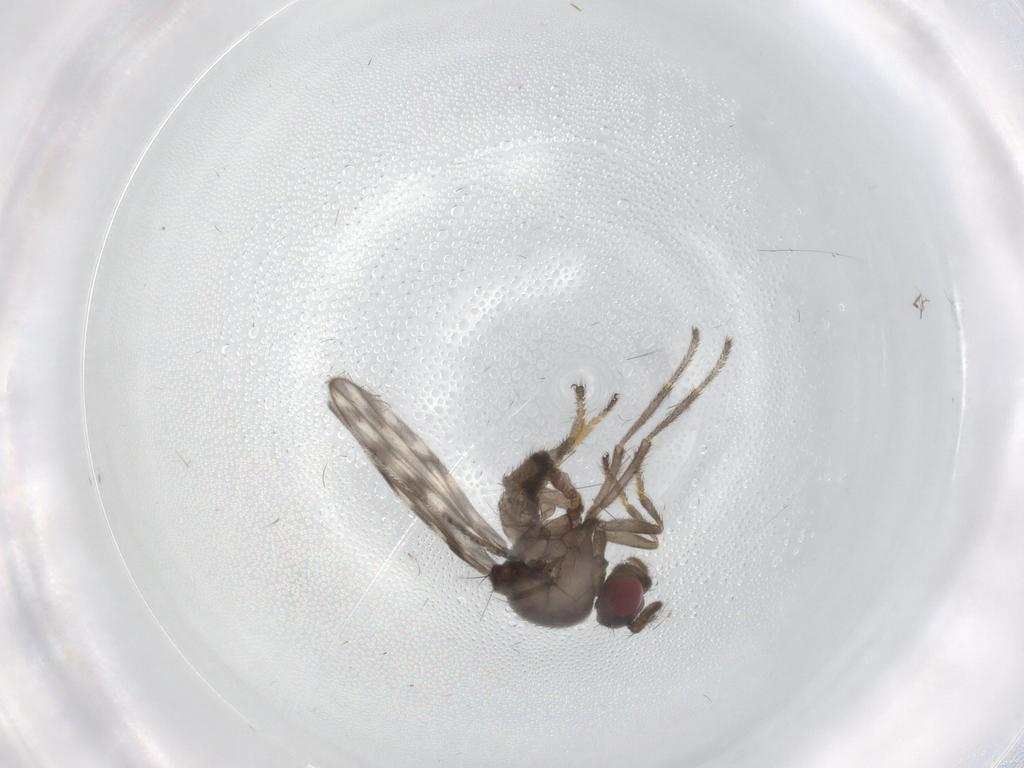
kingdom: Animalia
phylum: Arthropoda
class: Insecta
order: Diptera
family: Ephydridae
